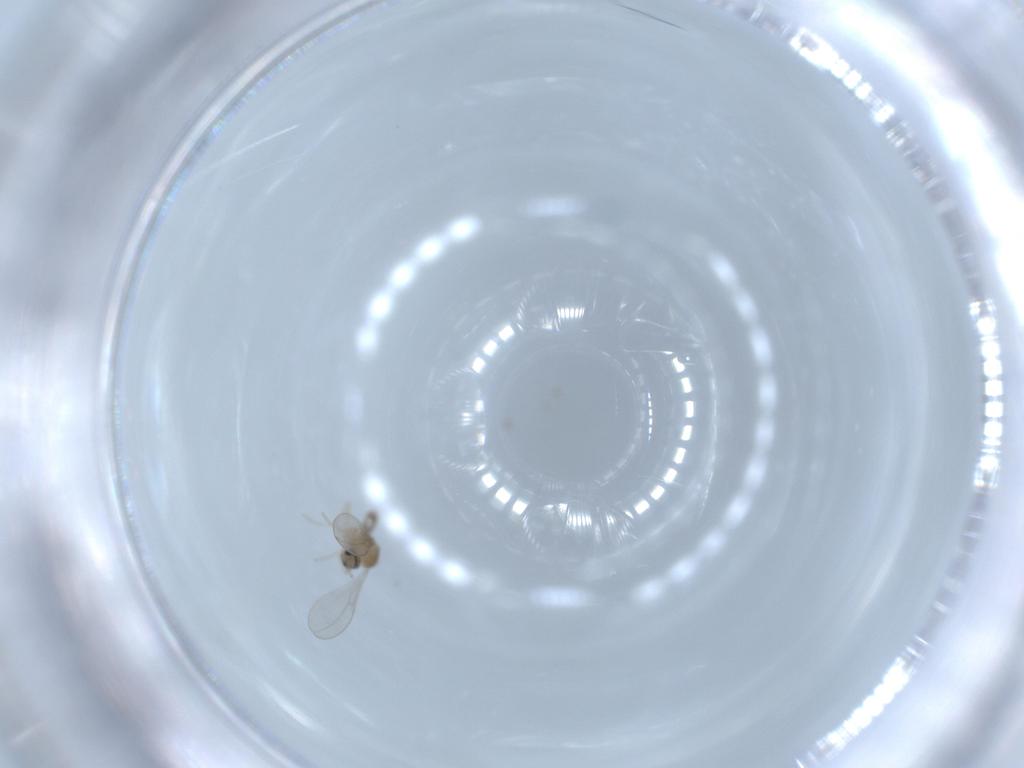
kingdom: Animalia
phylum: Arthropoda
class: Insecta
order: Diptera
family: Cecidomyiidae
